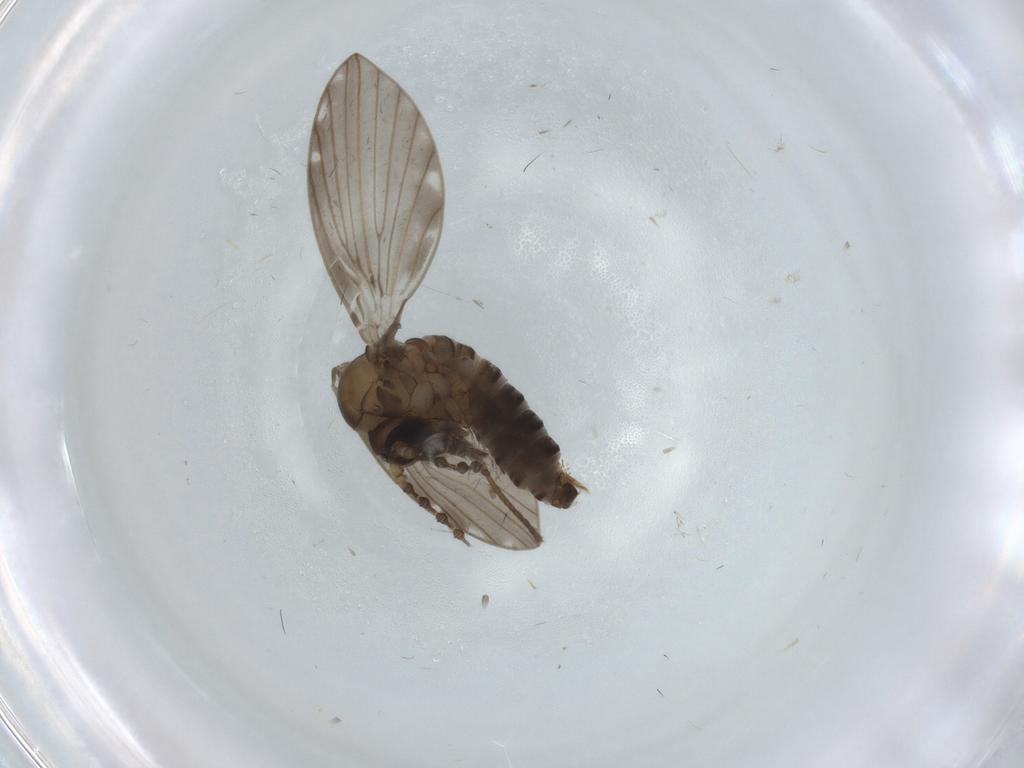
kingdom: Animalia
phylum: Arthropoda
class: Insecta
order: Diptera
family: Psychodidae
